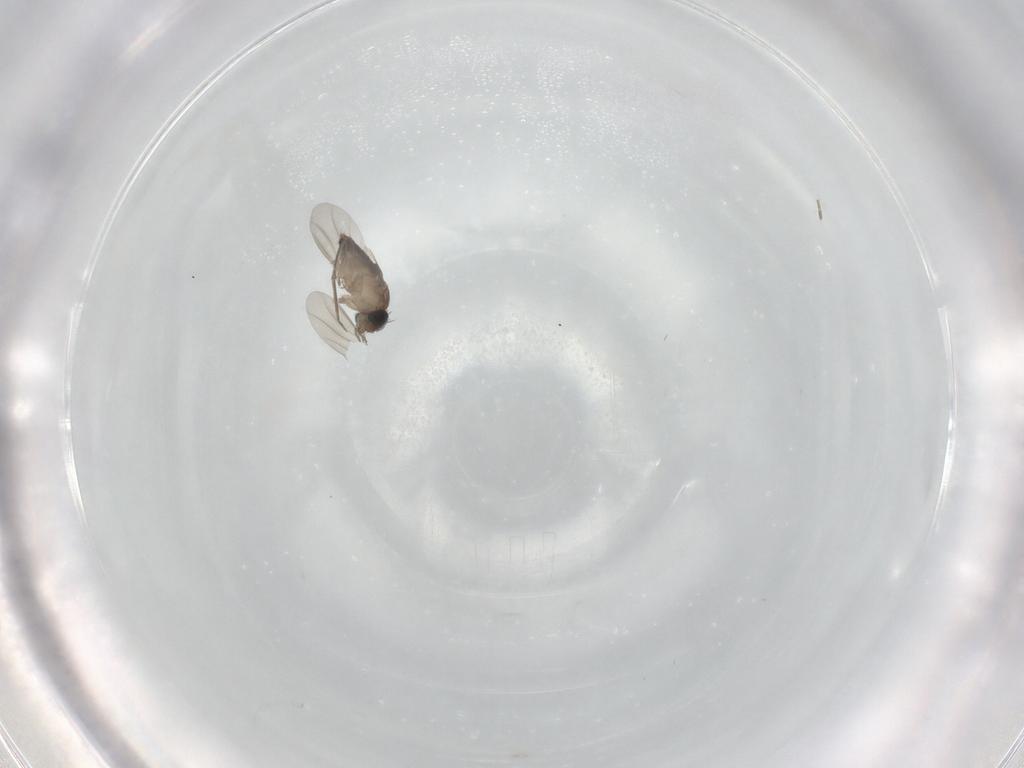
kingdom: Animalia
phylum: Arthropoda
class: Insecta
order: Diptera
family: Phoridae
